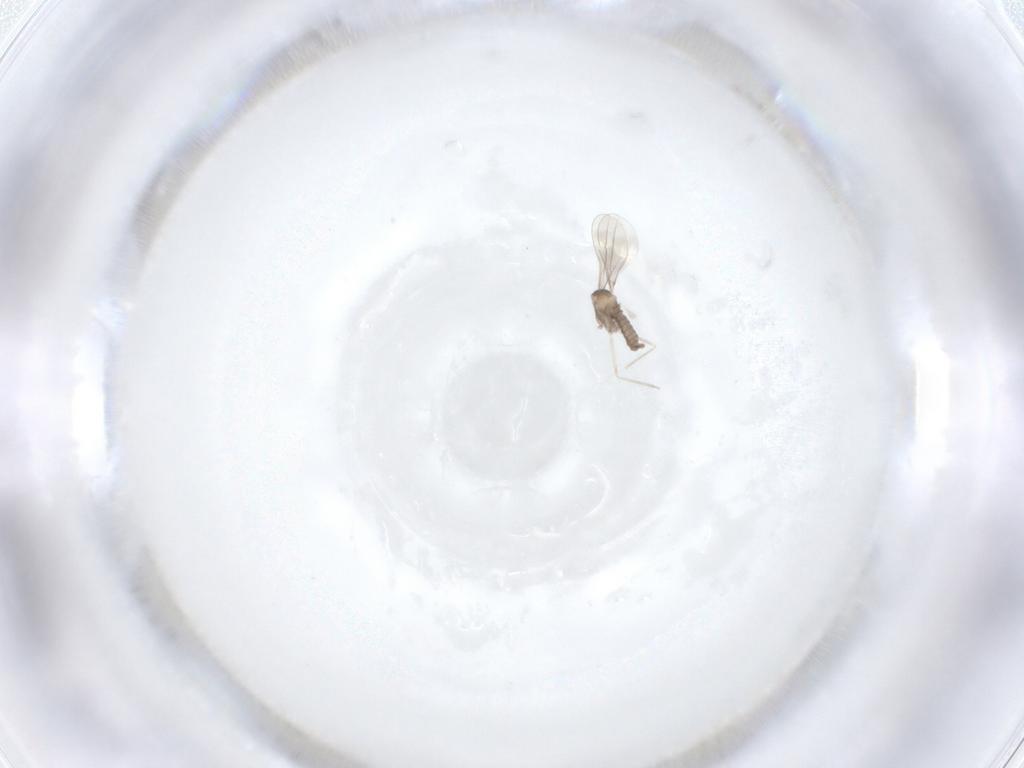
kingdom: Animalia
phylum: Arthropoda
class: Insecta
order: Diptera
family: Cecidomyiidae
